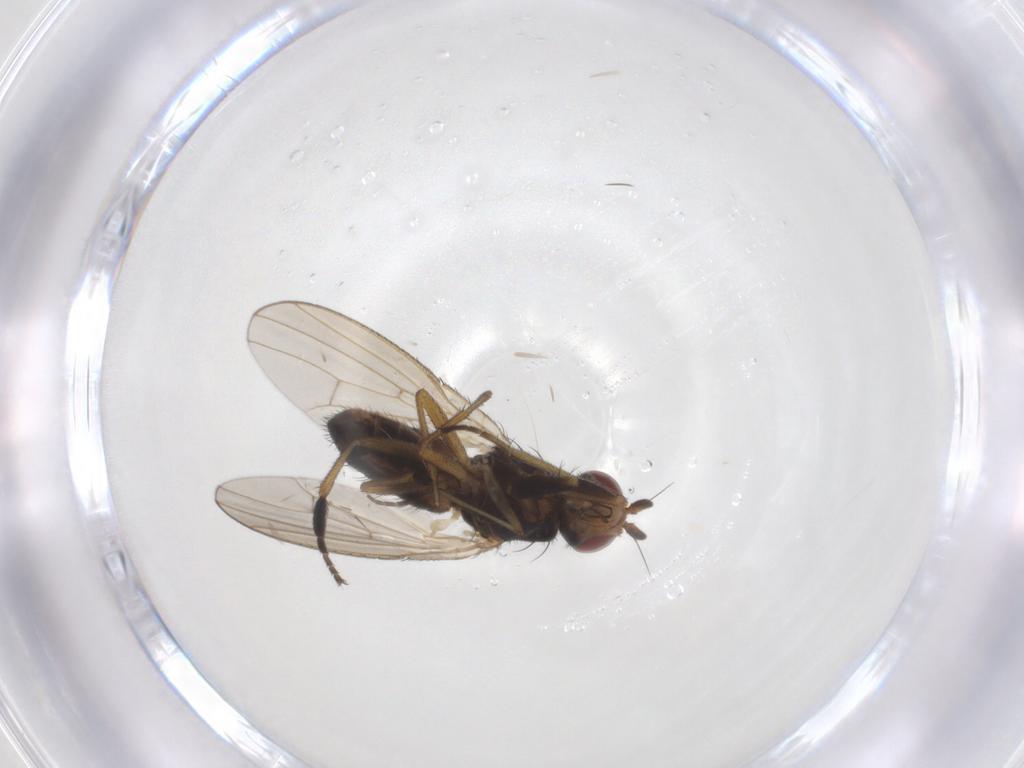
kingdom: Animalia
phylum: Arthropoda
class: Insecta
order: Diptera
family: Heleomyzidae
